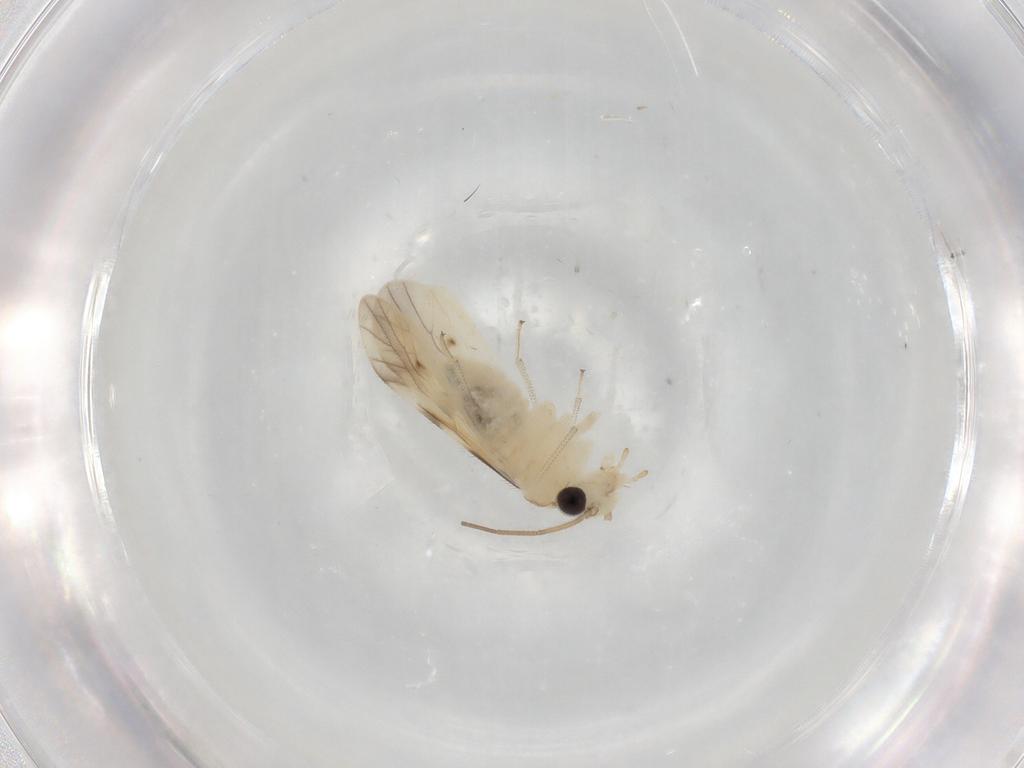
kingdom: Animalia
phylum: Arthropoda
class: Insecta
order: Psocodea
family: Caeciliusidae
